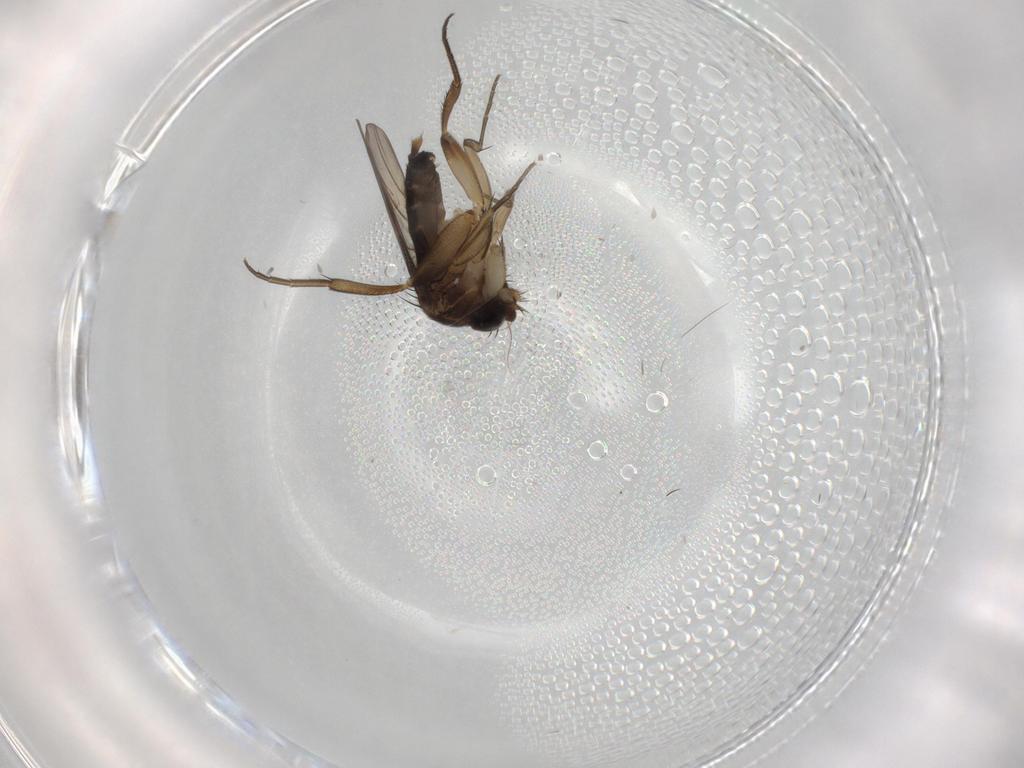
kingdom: Animalia
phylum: Arthropoda
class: Insecta
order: Diptera
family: Phoridae
